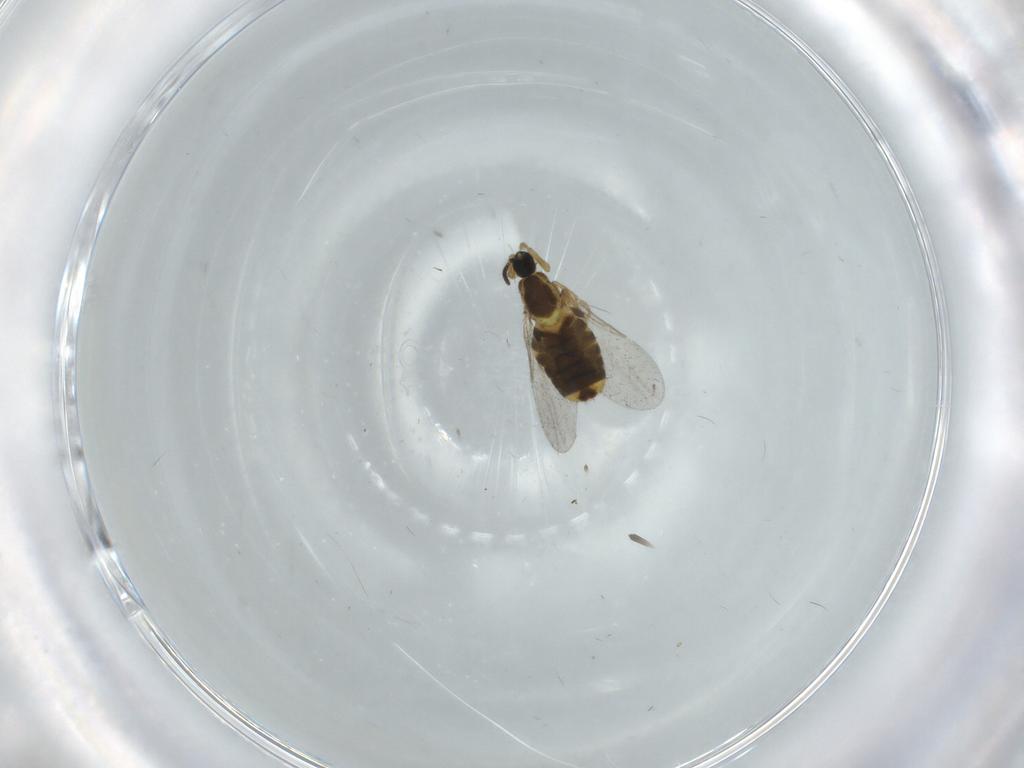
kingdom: Animalia
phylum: Arthropoda
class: Insecta
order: Diptera
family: Cecidomyiidae
